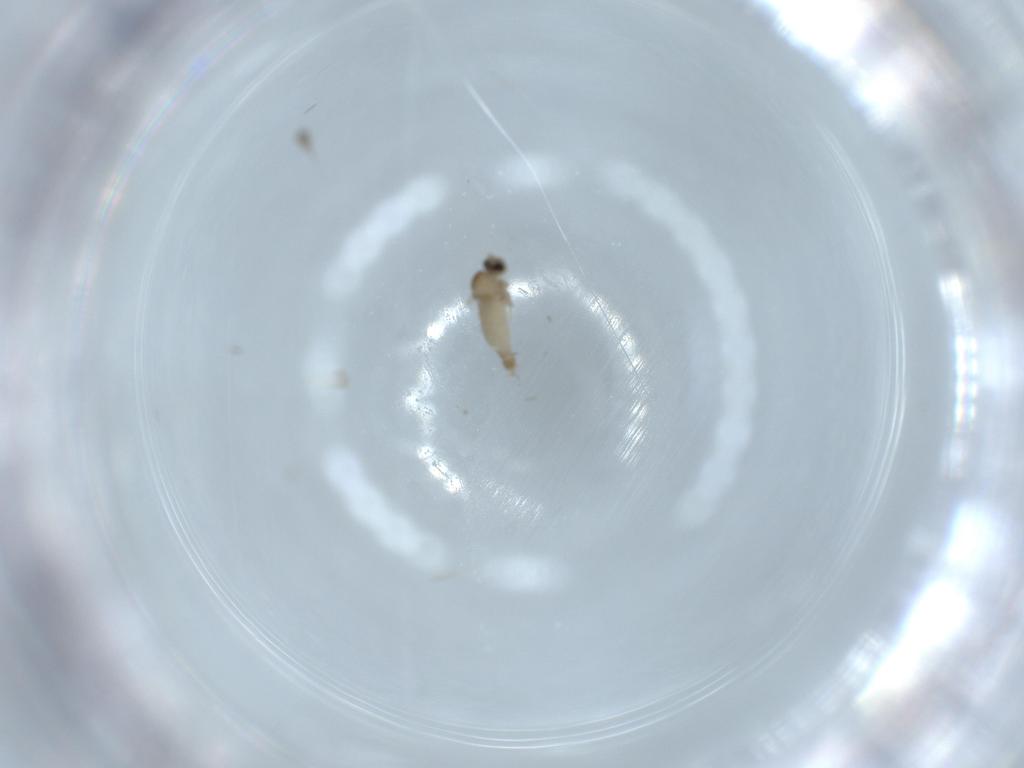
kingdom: Animalia
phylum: Arthropoda
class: Insecta
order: Diptera
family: Cecidomyiidae
